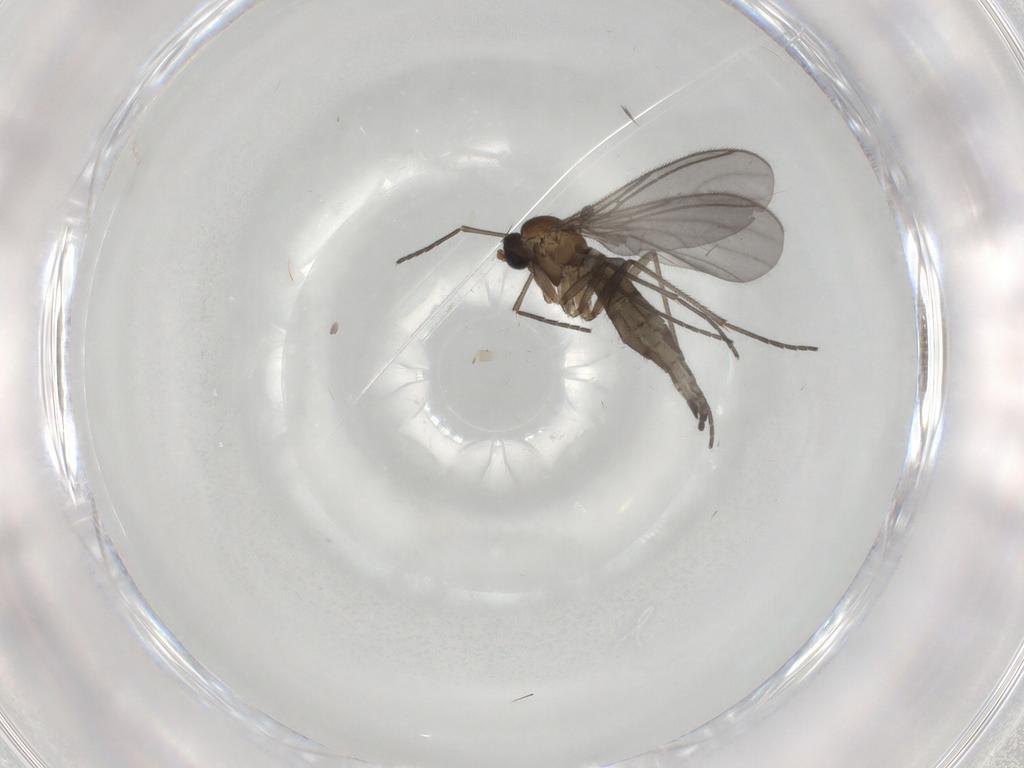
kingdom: Animalia
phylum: Arthropoda
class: Insecta
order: Diptera
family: Sciaridae
